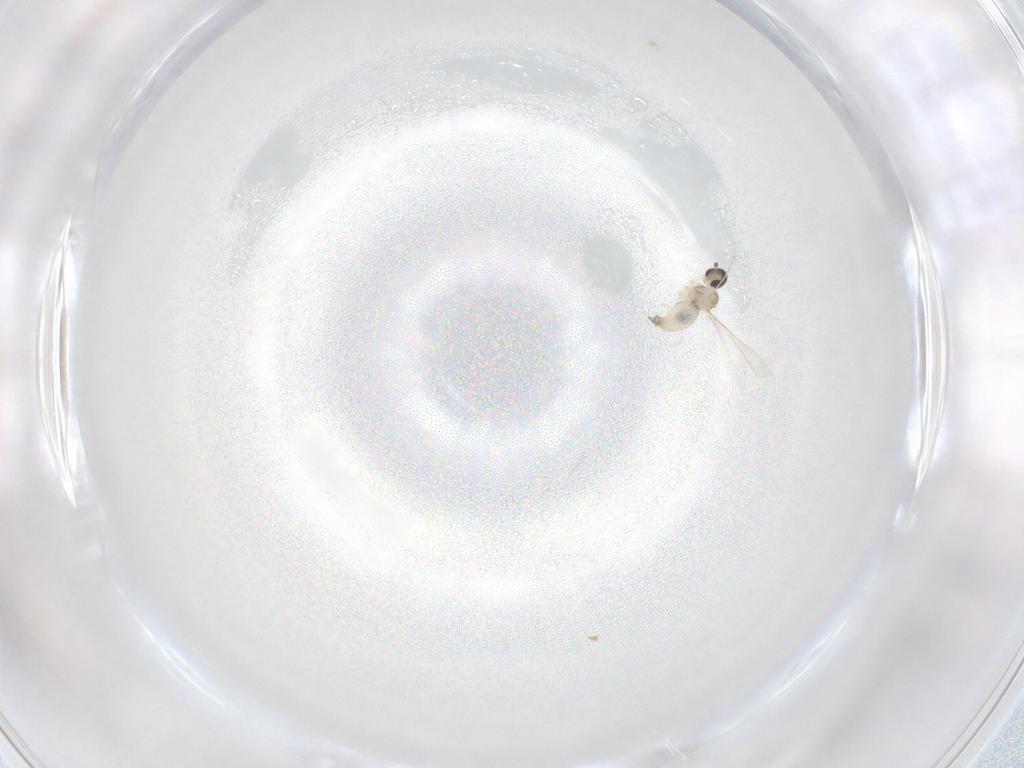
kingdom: Animalia
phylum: Arthropoda
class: Insecta
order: Diptera
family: Cecidomyiidae
